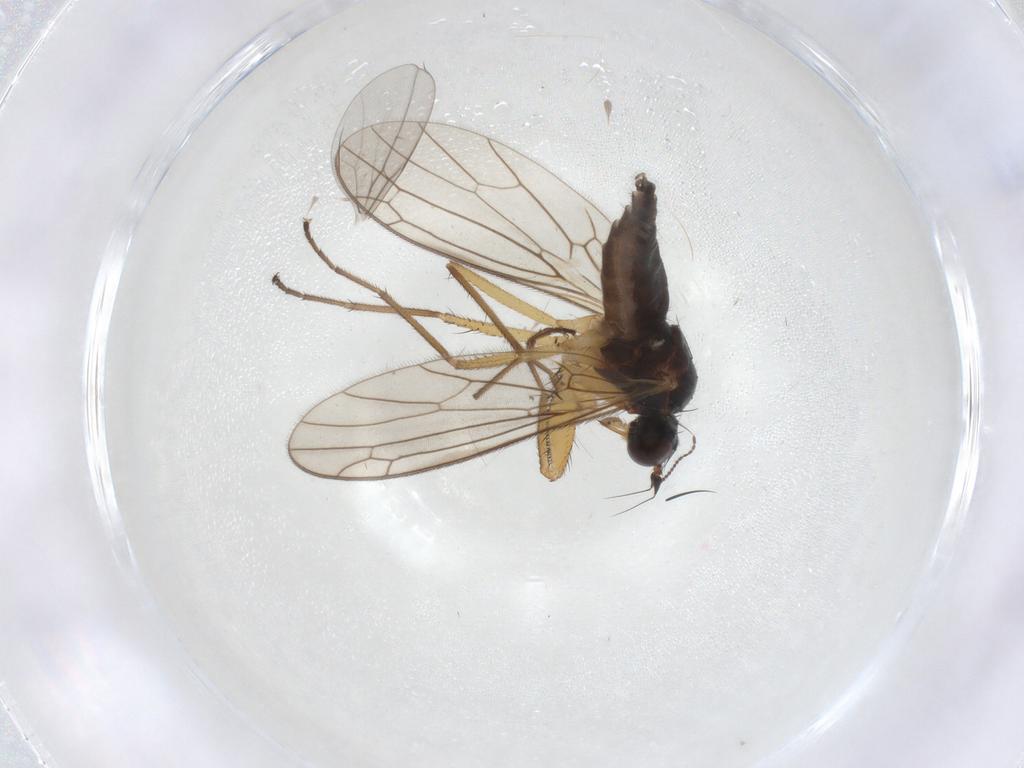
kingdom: Animalia
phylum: Arthropoda
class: Insecta
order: Diptera
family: Empididae
